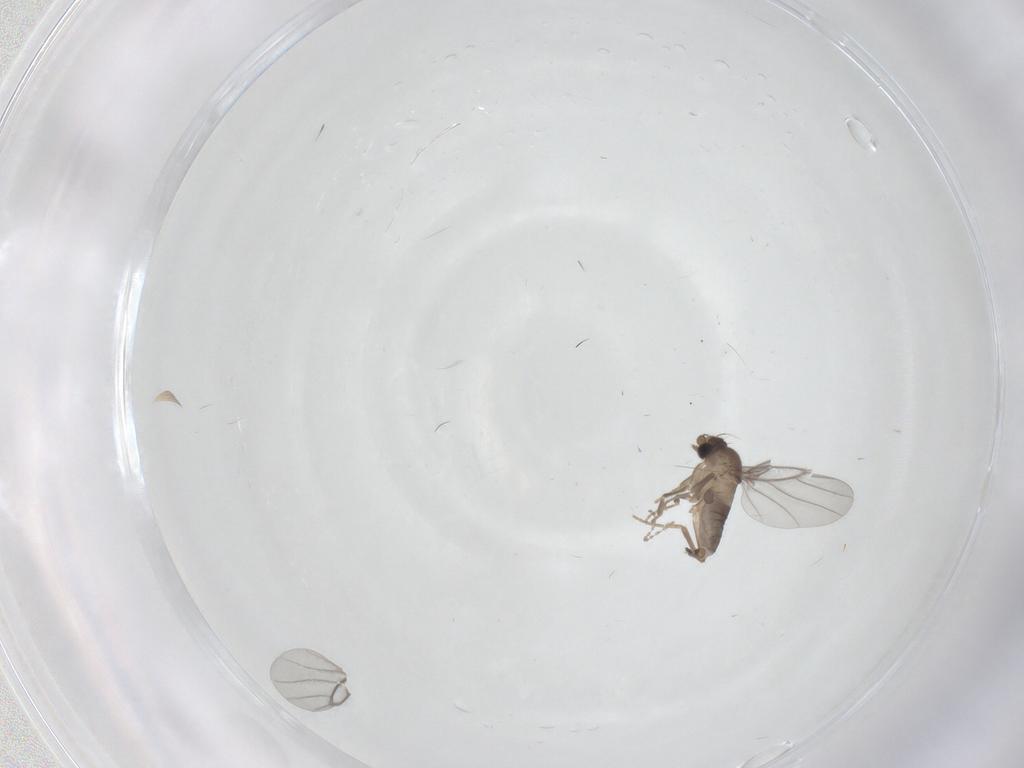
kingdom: Animalia
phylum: Arthropoda
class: Insecta
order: Diptera
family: Cecidomyiidae
